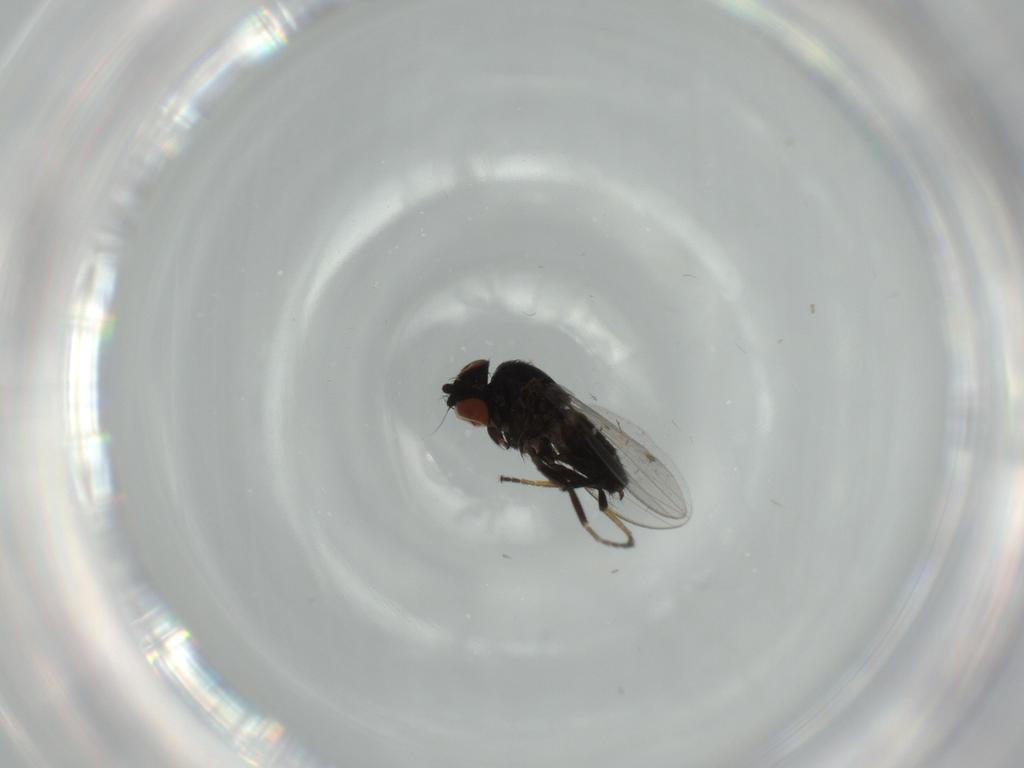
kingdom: Animalia
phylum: Arthropoda
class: Insecta
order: Diptera
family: Milichiidae
